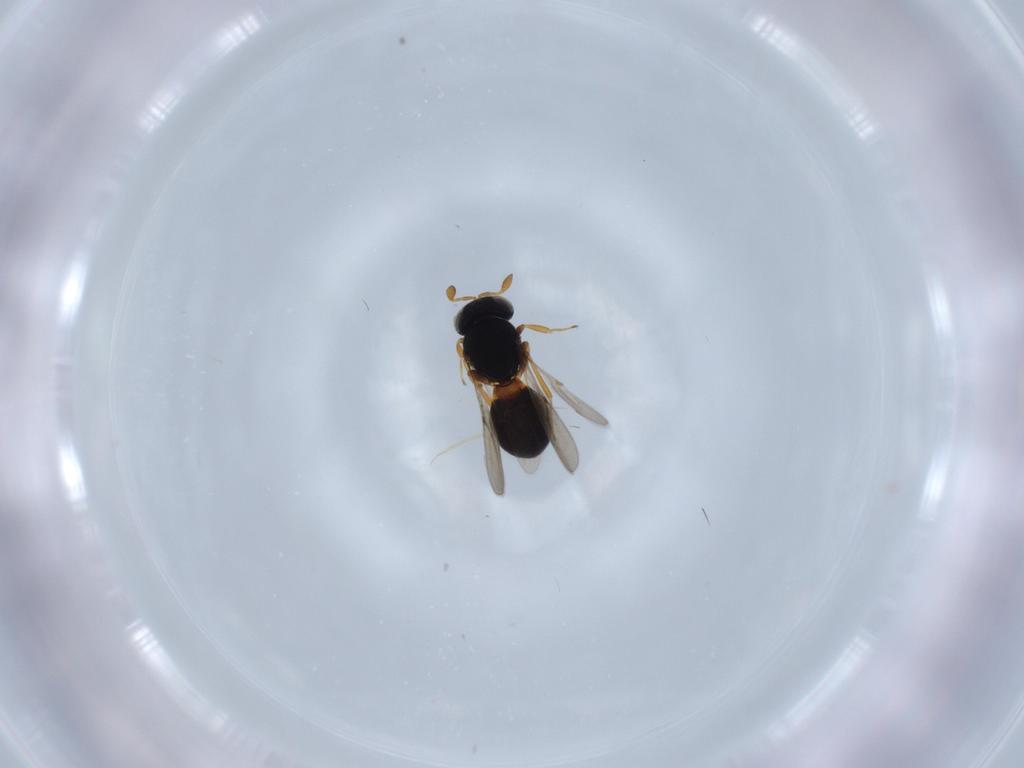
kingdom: Animalia
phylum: Arthropoda
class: Insecta
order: Hymenoptera
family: Scelionidae
